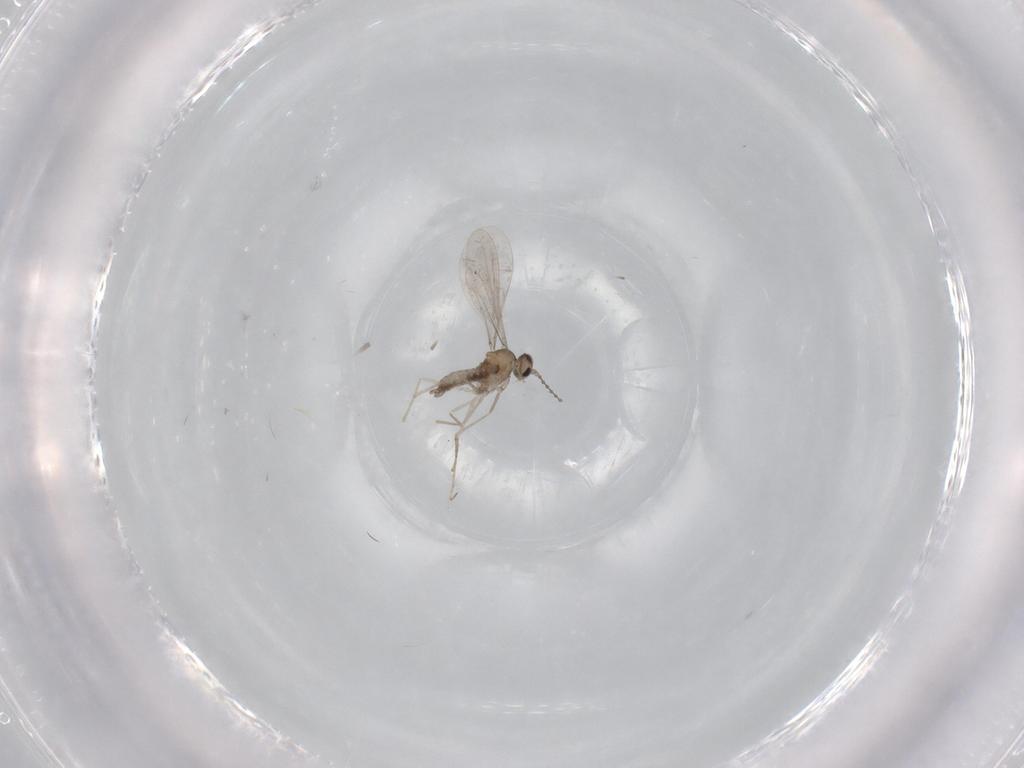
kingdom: Animalia
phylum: Arthropoda
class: Insecta
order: Diptera
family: Cecidomyiidae
